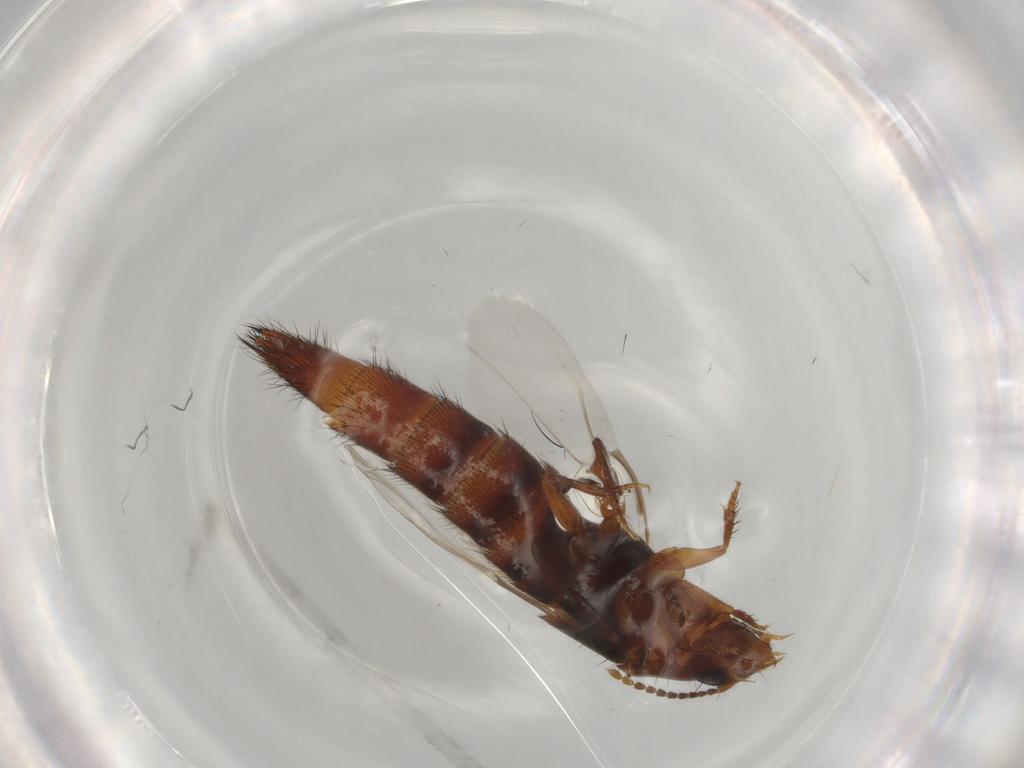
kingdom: Animalia
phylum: Arthropoda
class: Insecta
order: Coleoptera
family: Staphylinidae
